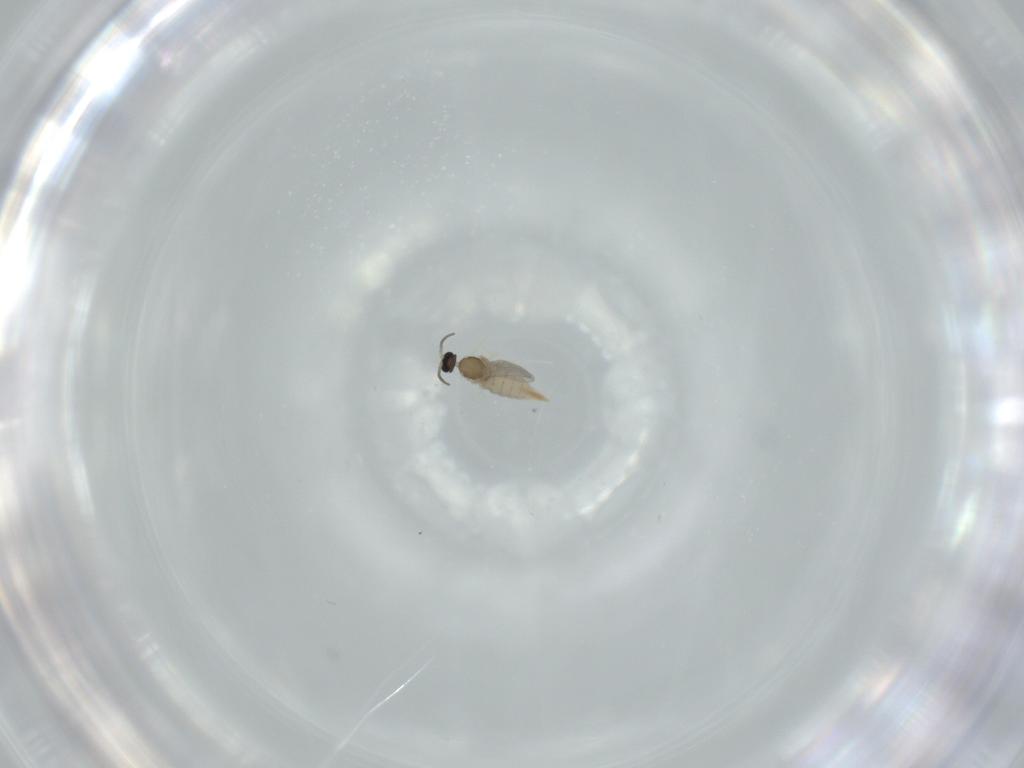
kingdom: Animalia
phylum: Arthropoda
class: Insecta
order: Diptera
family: Cecidomyiidae
